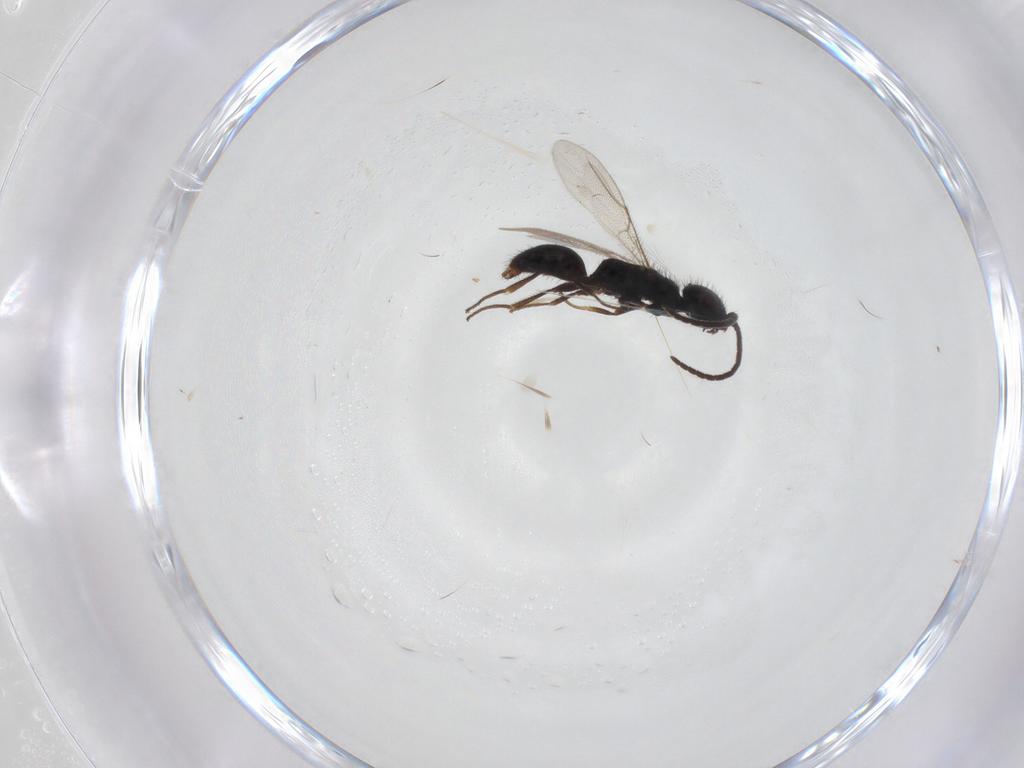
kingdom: Animalia
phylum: Arthropoda
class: Insecta
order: Hymenoptera
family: Bethylidae
